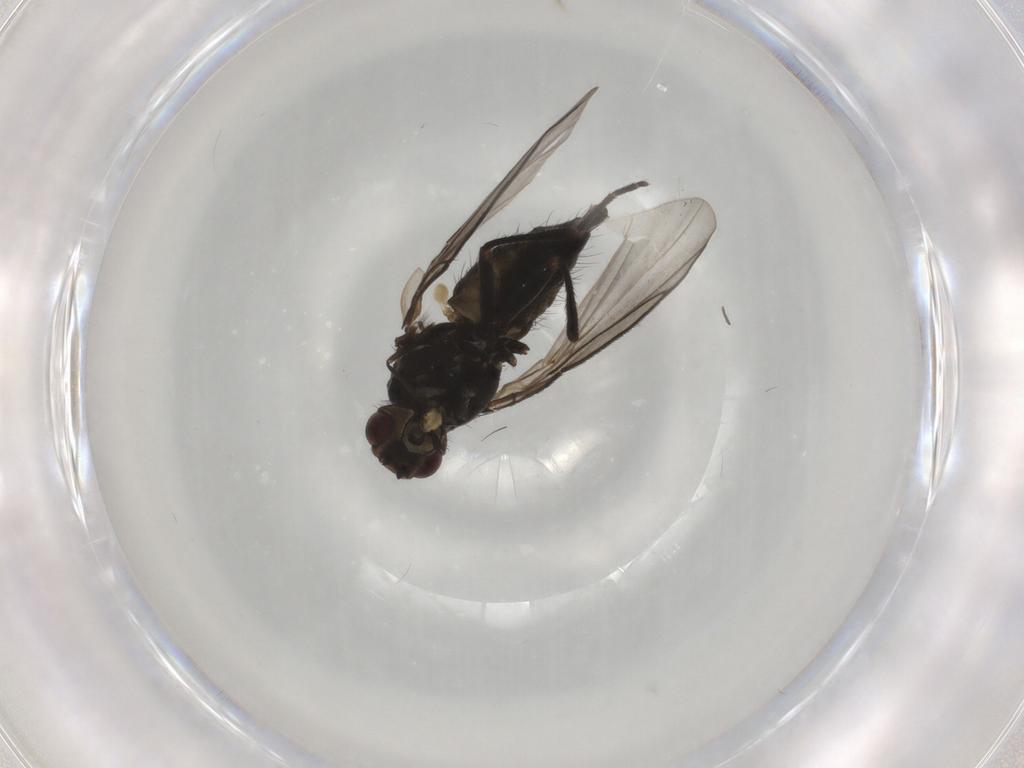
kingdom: Animalia
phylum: Arthropoda
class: Insecta
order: Diptera
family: Agromyzidae
